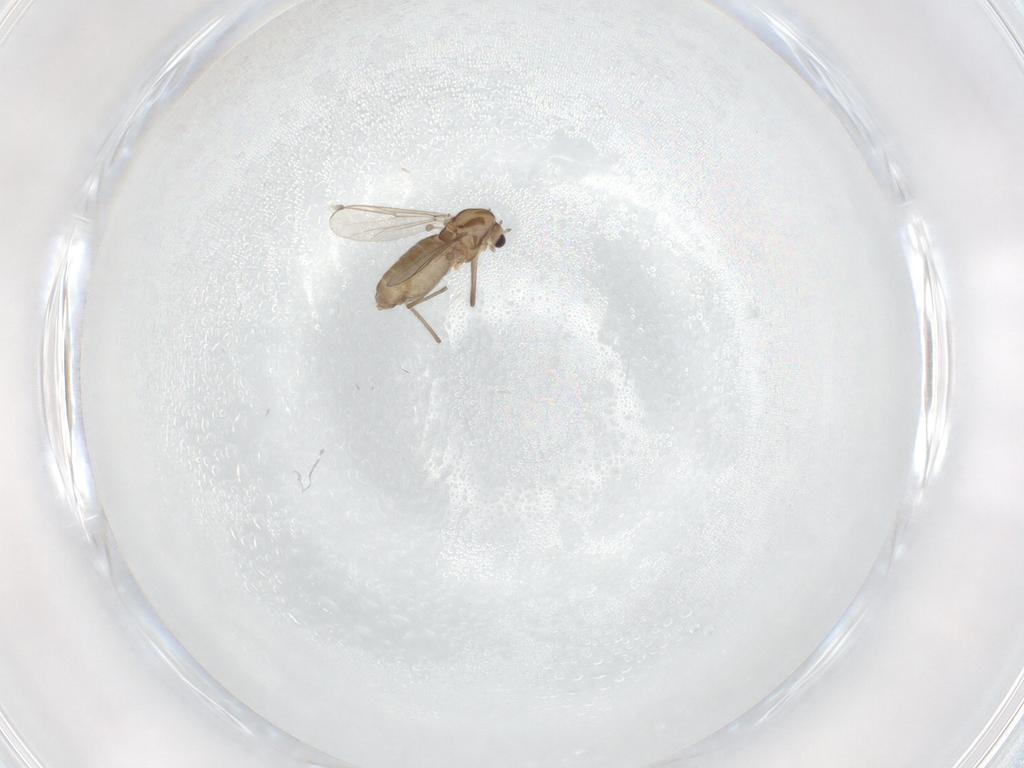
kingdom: Animalia
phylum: Arthropoda
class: Insecta
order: Diptera
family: Chironomidae
